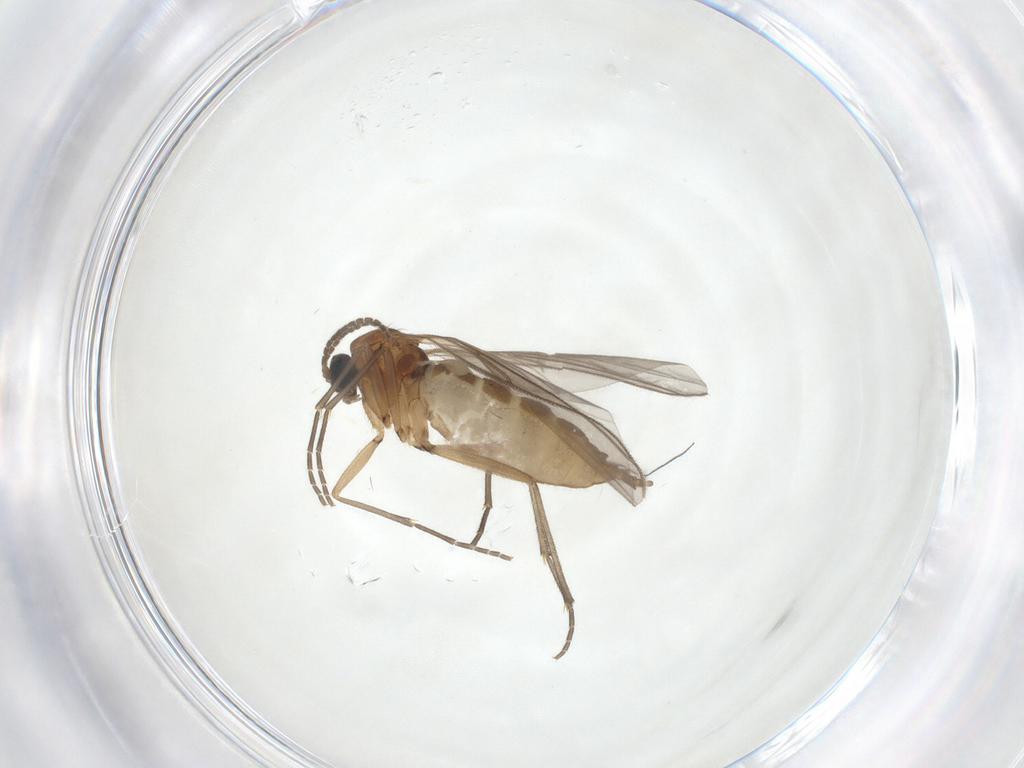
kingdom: Animalia
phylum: Arthropoda
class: Insecta
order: Diptera
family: Sciaridae
